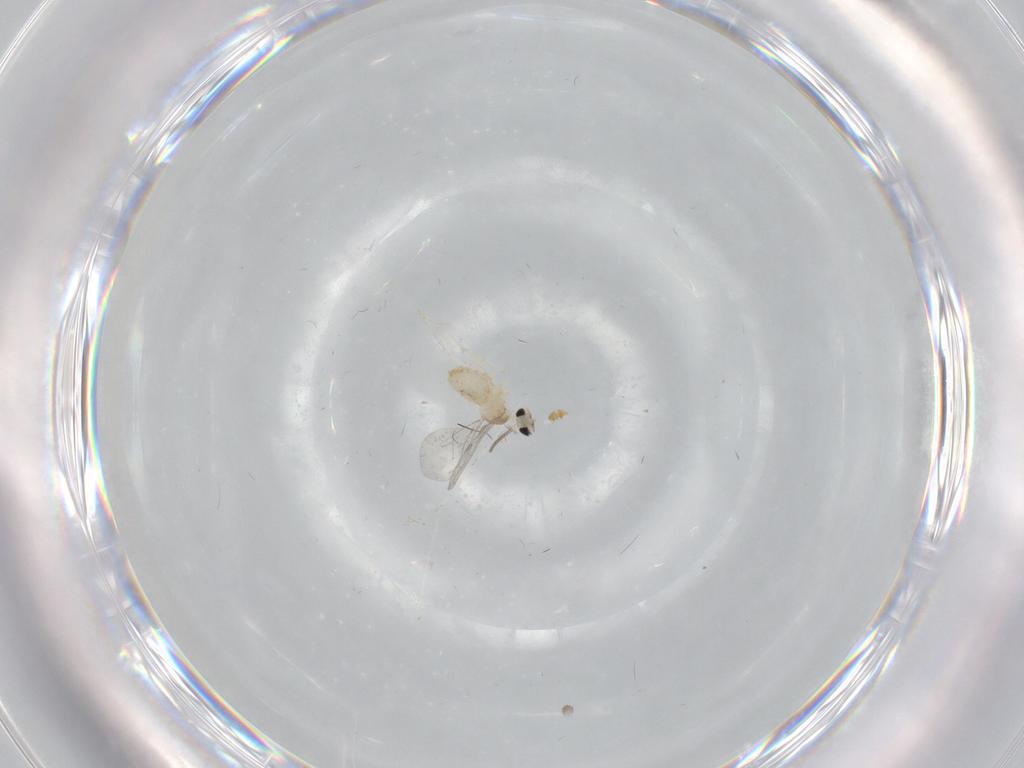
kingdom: Animalia
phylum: Arthropoda
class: Insecta
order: Diptera
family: Cecidomyiidae
